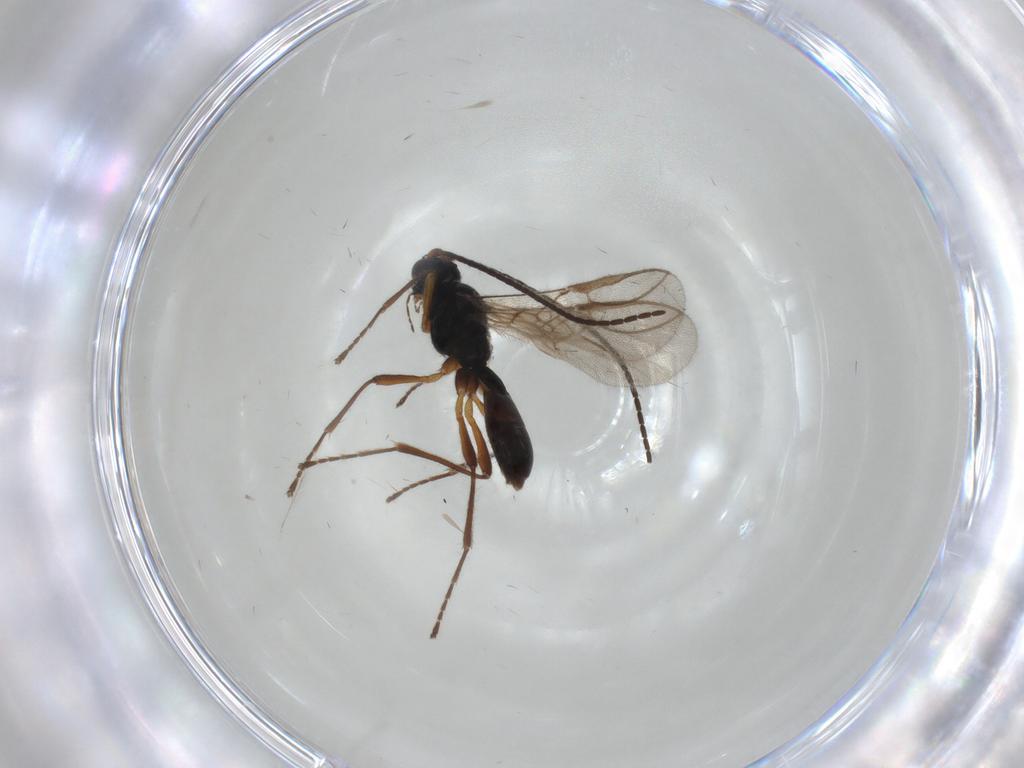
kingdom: Animalia
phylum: Arthropoda
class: Insecta
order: Hymenoptera
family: Braconidae
